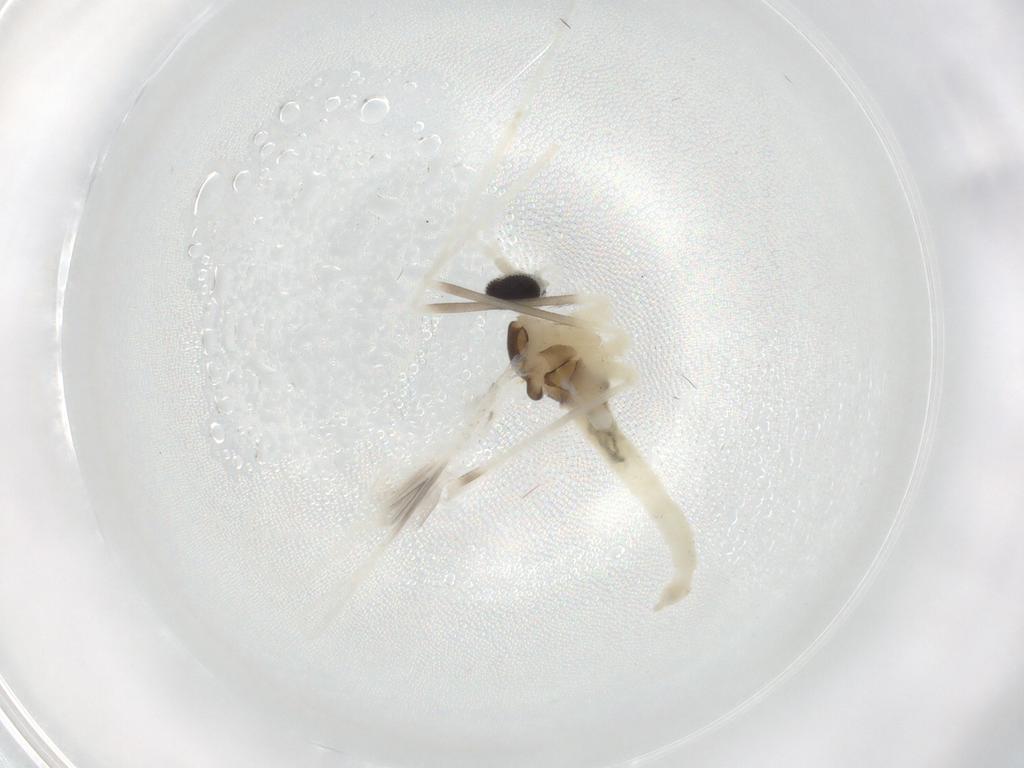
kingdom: Animalia
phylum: Arthropoda
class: Insecta
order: Diptera
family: Cecidomyiidae
